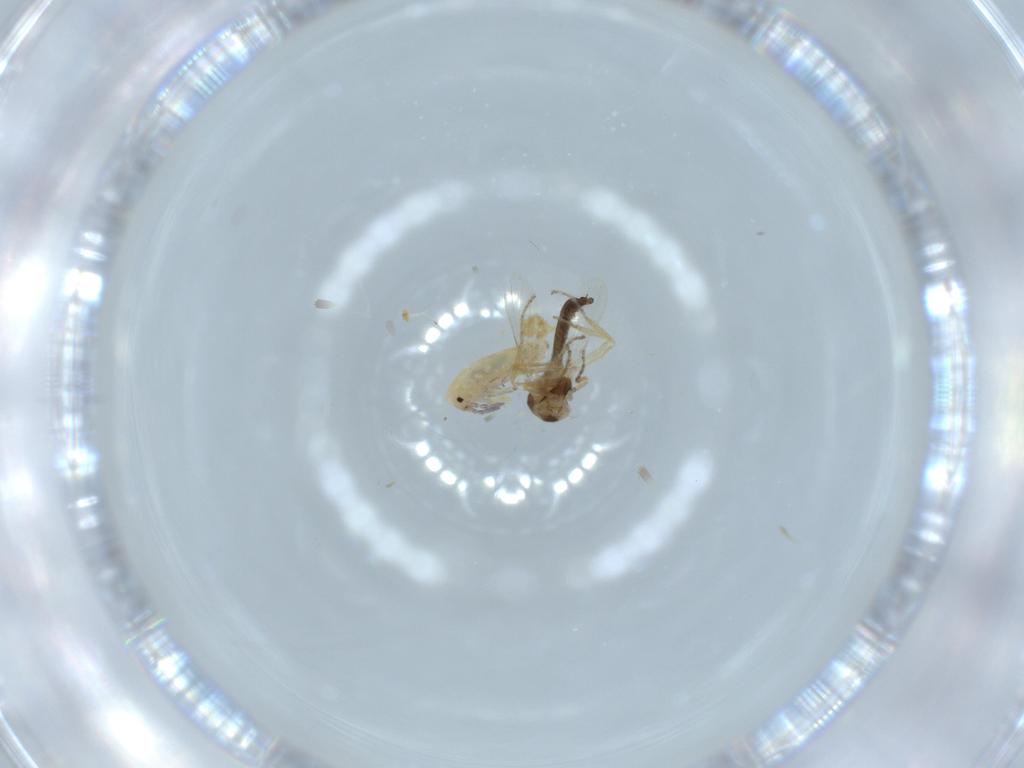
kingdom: Animalia
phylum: Arthropoda
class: Insecta
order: Diptera
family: Ceratopogonidae
